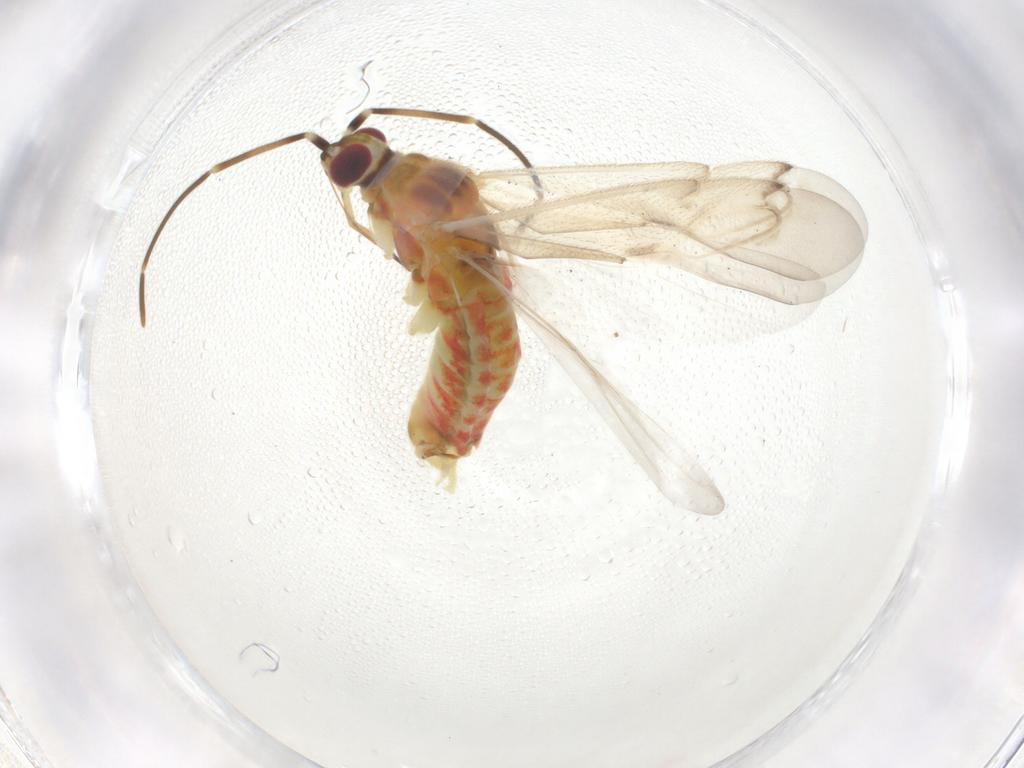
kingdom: Animalia
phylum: Arthropoda
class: Insecta
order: Hemiptera
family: Miridae
